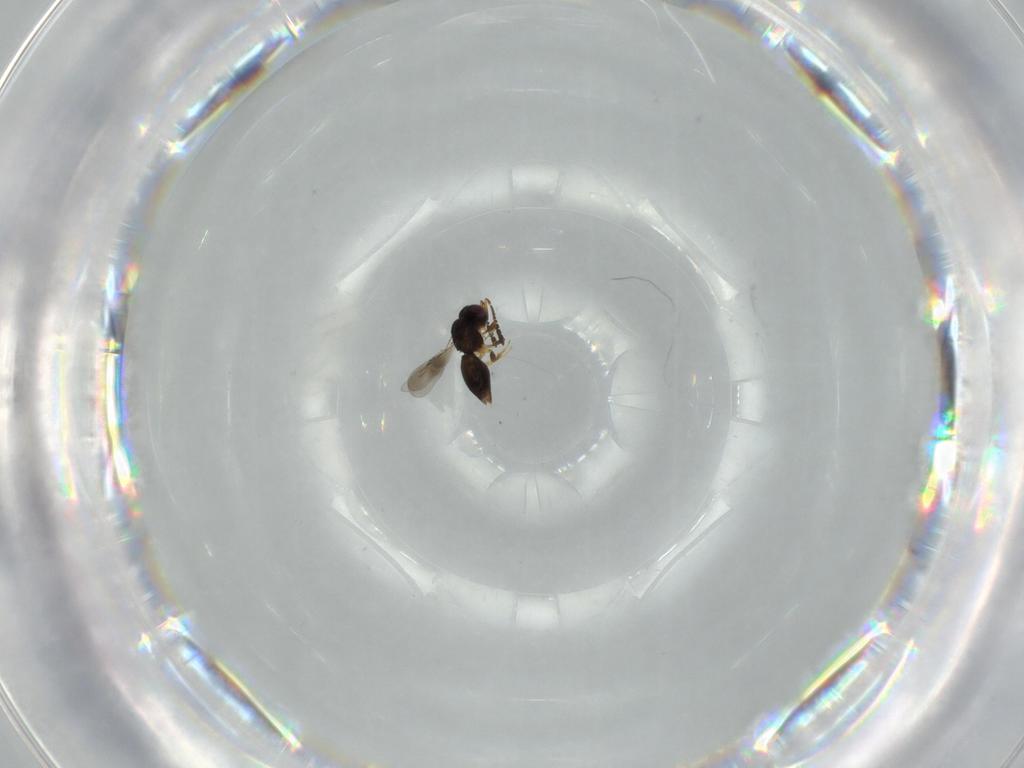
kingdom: Animalia
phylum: Arthropoda
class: Insecta
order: Hymenoptera
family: Ceraphronidae
